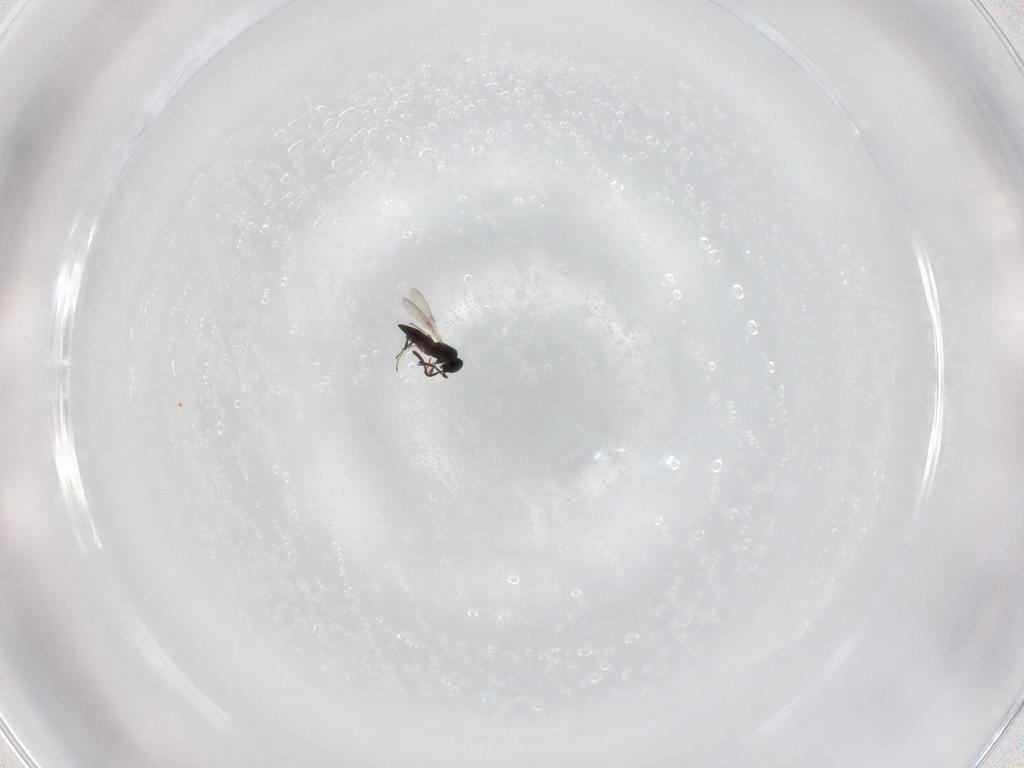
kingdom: Animalia
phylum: Arthropoda
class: Insecta
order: Hymenoptera
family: Scelionidae
